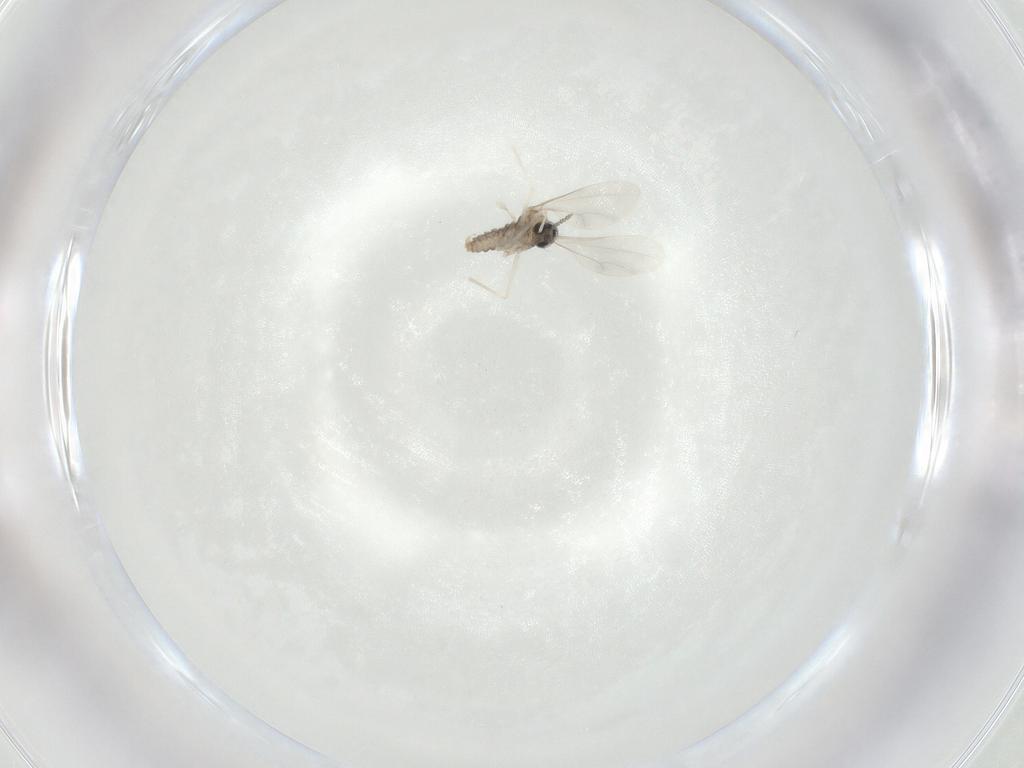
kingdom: Animalia
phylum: Arthropoda
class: Insecta
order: Diptera
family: Cecidomyiidae
